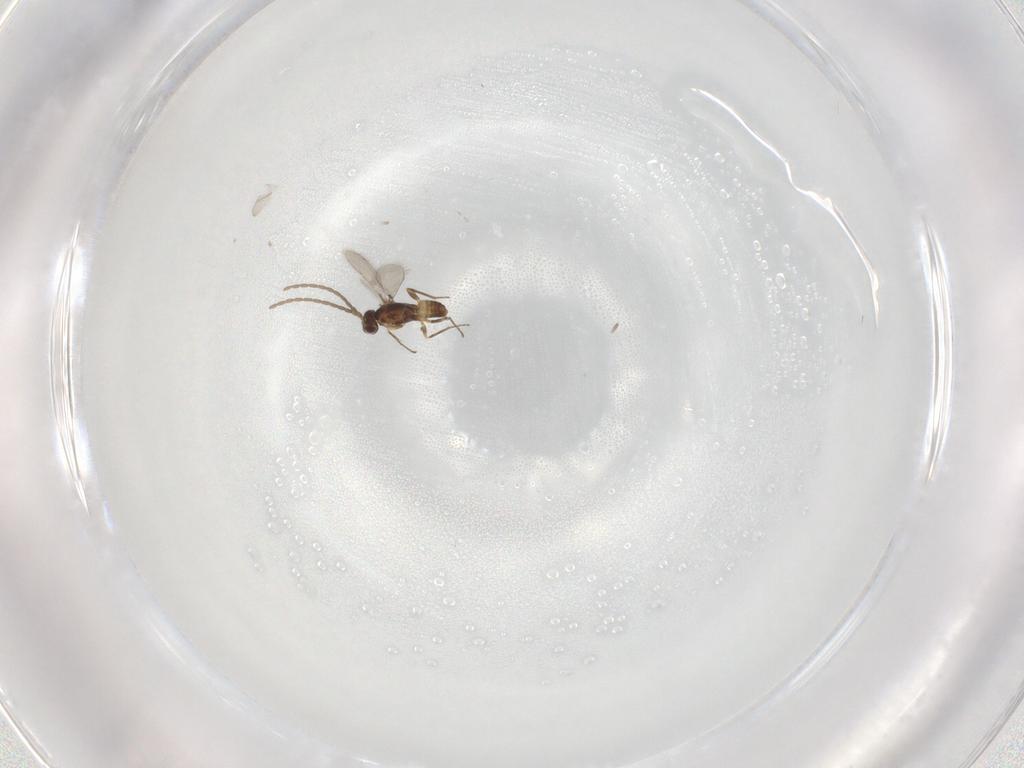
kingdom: Animalia
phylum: Arthropoda
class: Insecta
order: Hymenoptera
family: Mymaridae
